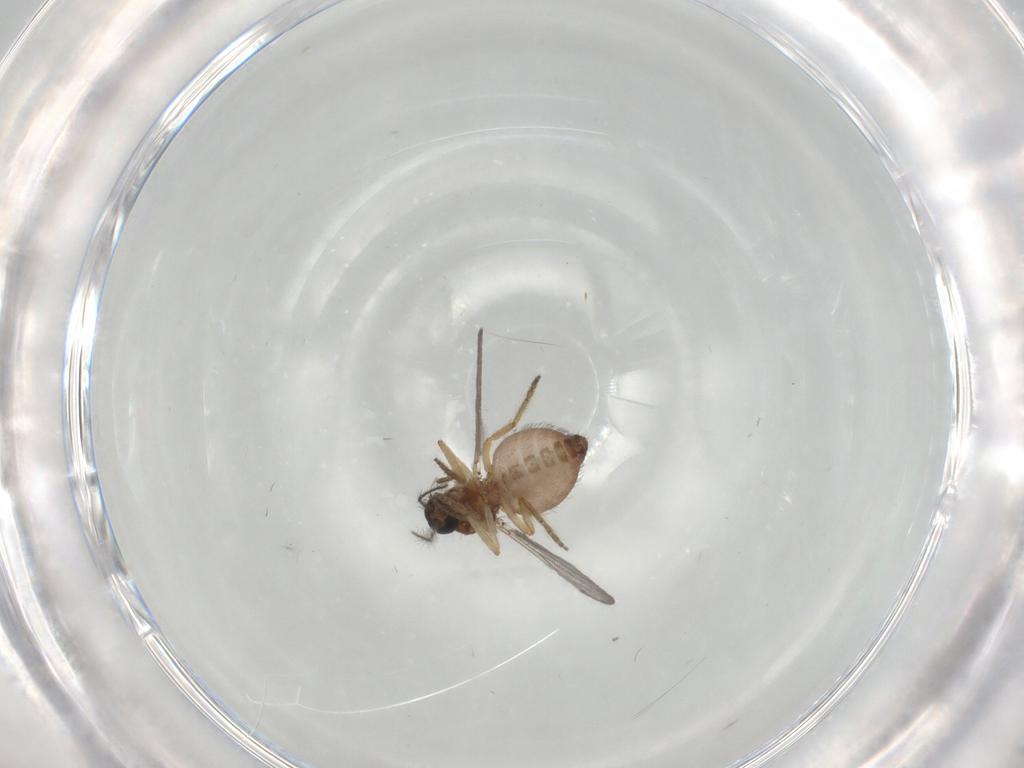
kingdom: Animalia
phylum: Arthropoda
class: Insecta
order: Diptera
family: Ceratopogonidae
